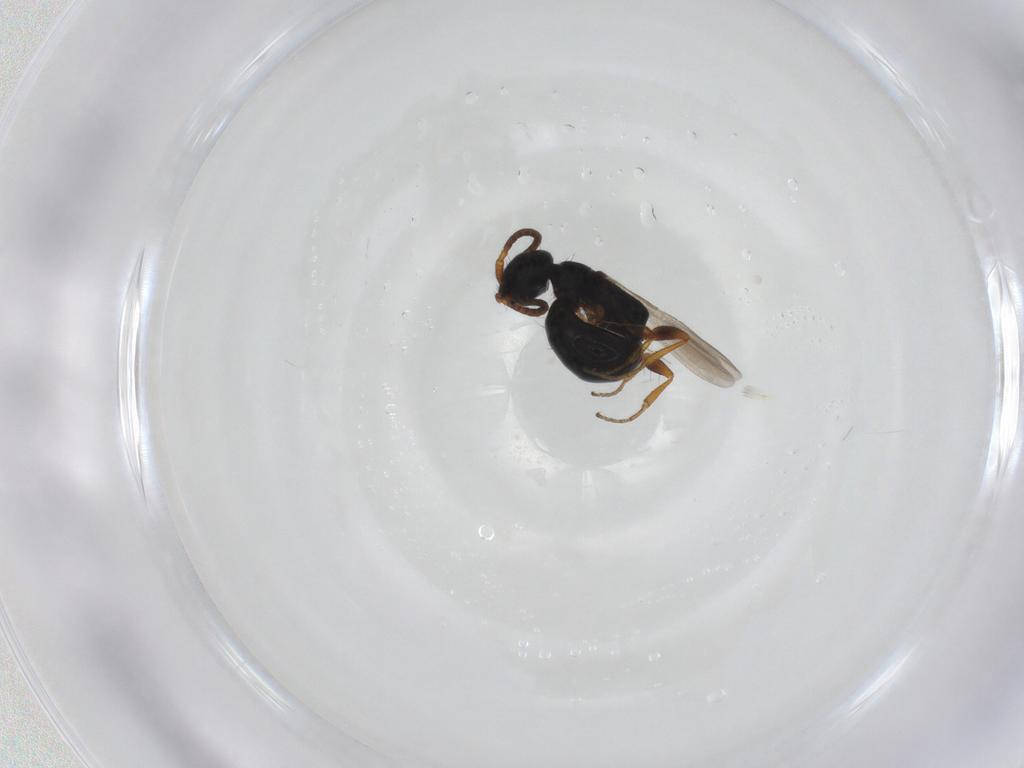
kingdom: Animalia
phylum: Arthropoda
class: Insecta
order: Hymenoptera
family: Bethylidae
